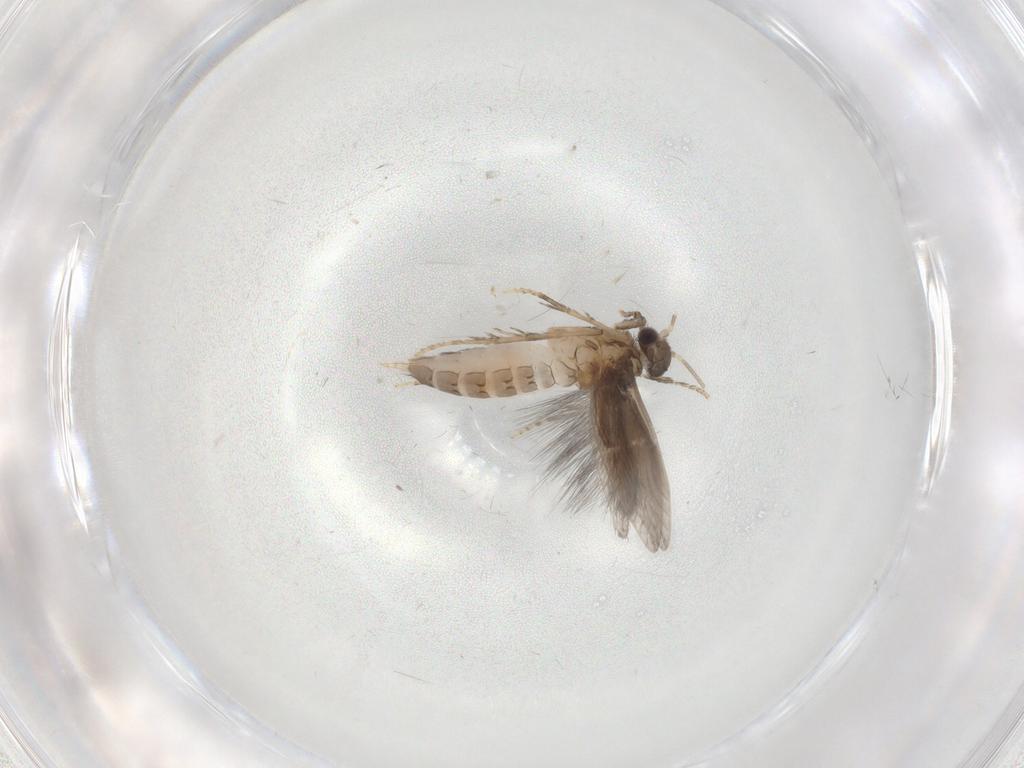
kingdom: Animalia
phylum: Arthropoda
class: Insecta
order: Trichoptera
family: Hydroptilidae
